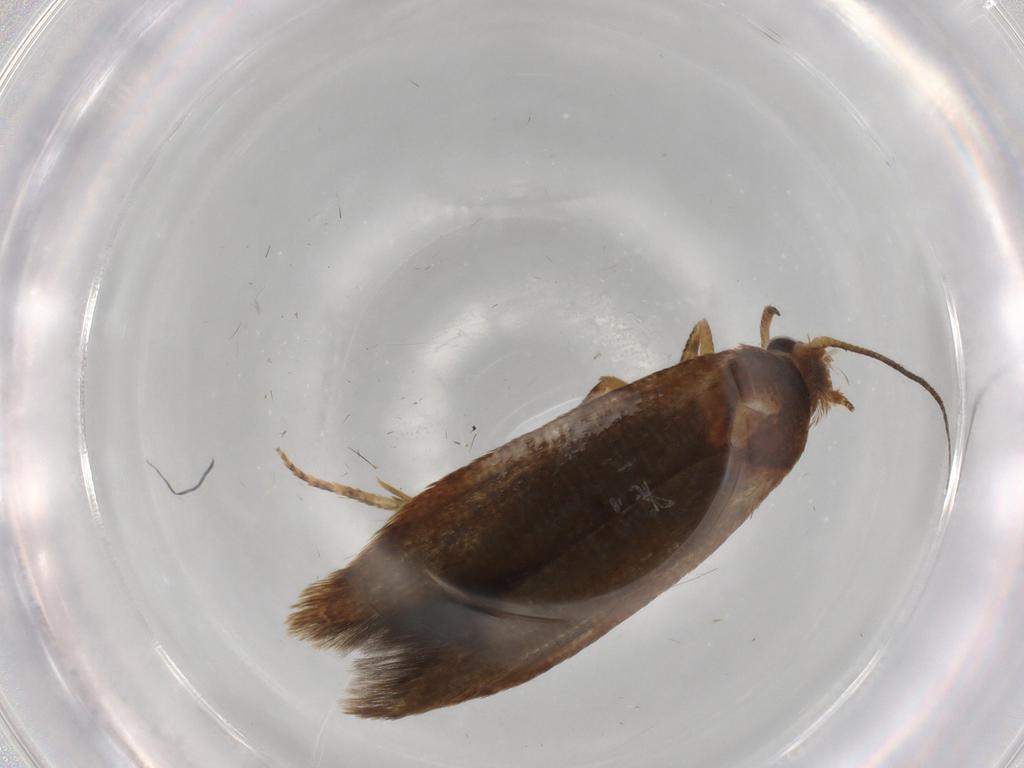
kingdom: Animalia
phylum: Arthropoda
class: Insecta
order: Lepidoptera
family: Blastobasidae
